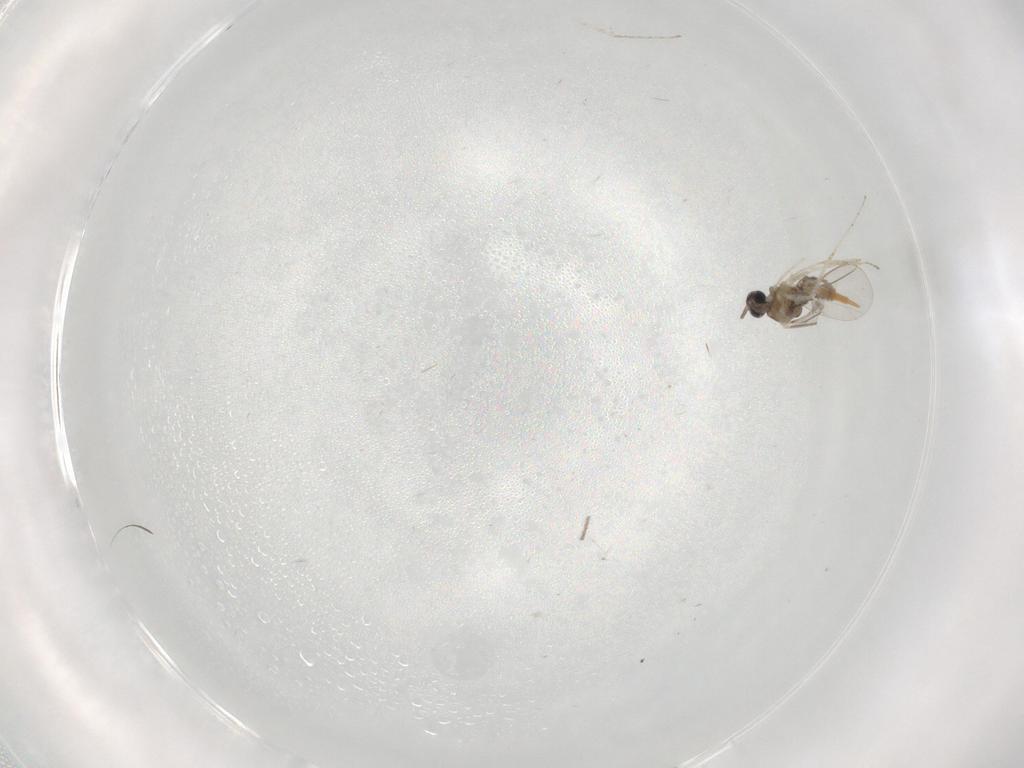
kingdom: Animalia
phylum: Arthropoda
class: Insecta
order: Diptera
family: Cecidomyiidae
